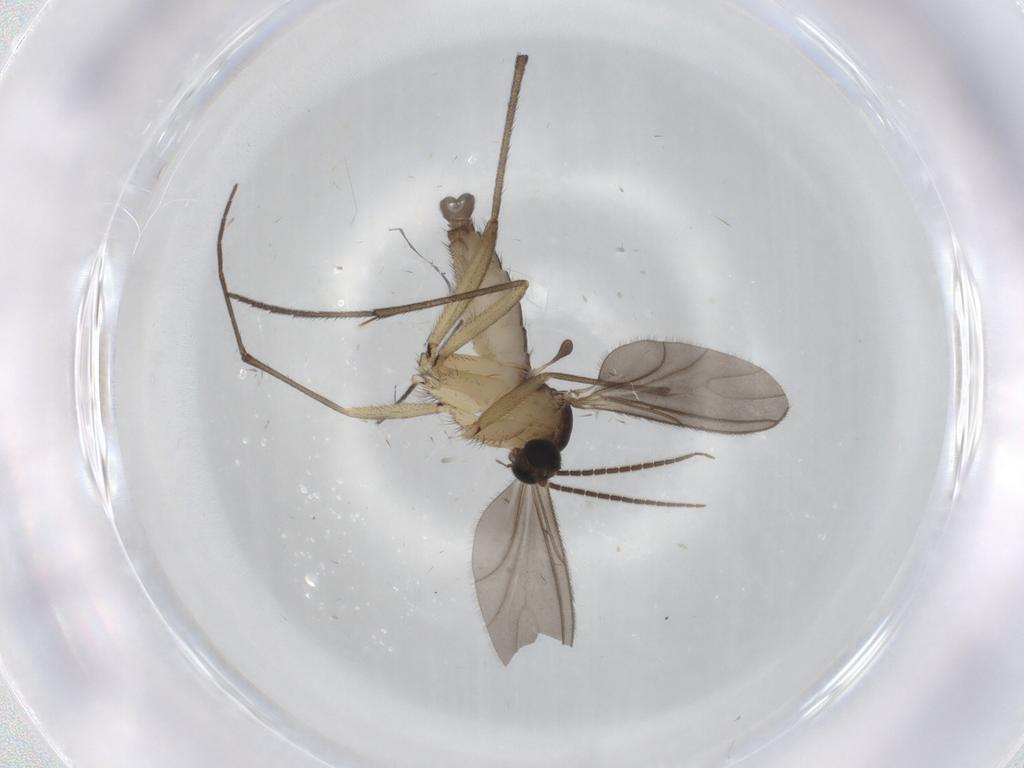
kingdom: Animalia
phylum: Arthropoda
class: Insecta
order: Diptera
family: Sciaridae
